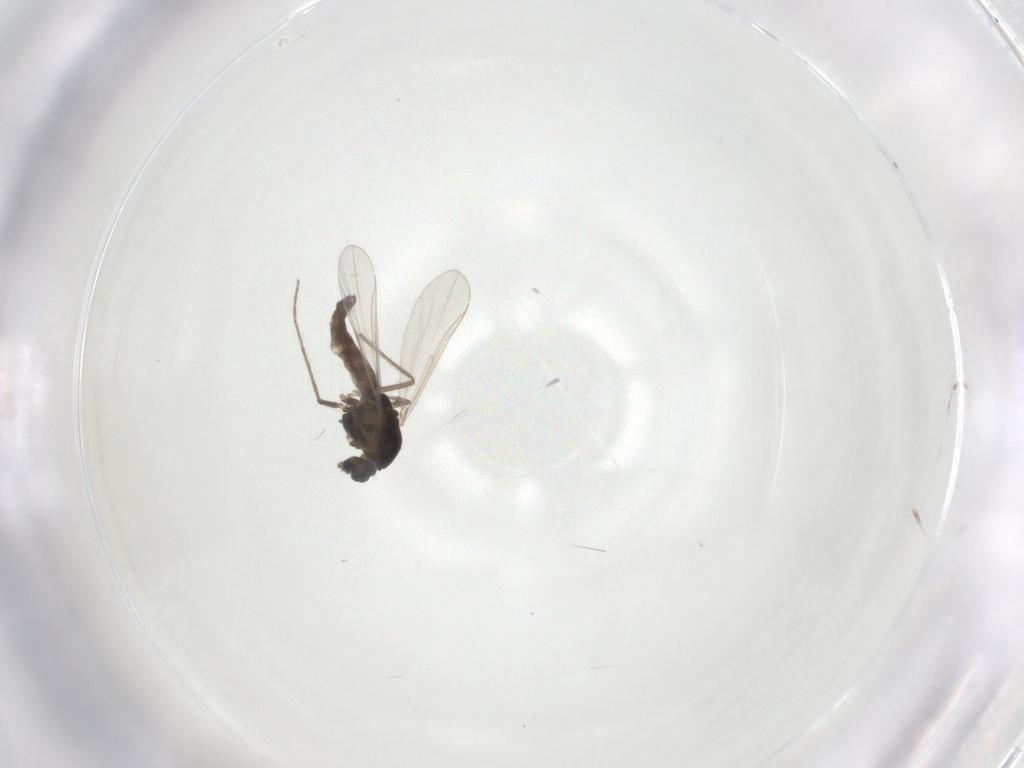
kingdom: Animalia
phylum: Arthropoda
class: Insecta
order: Diptera
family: Chironomidae
